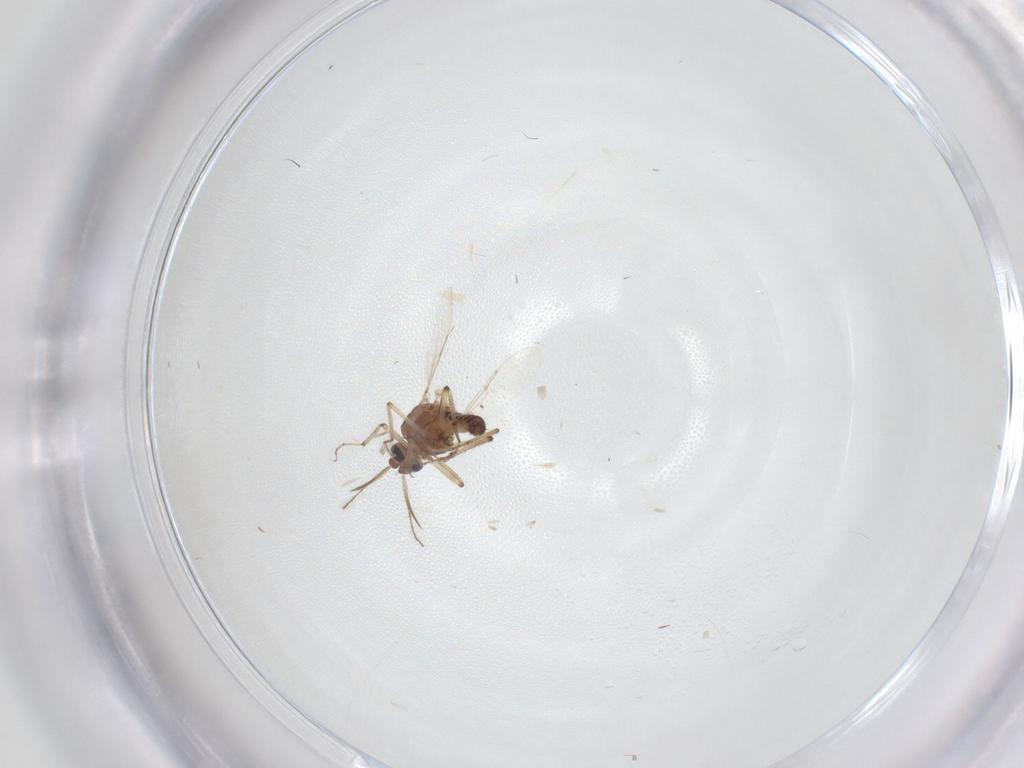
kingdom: Animalia
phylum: Arthropoda
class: Insecta
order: Diptera
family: Ceratopogonidae
